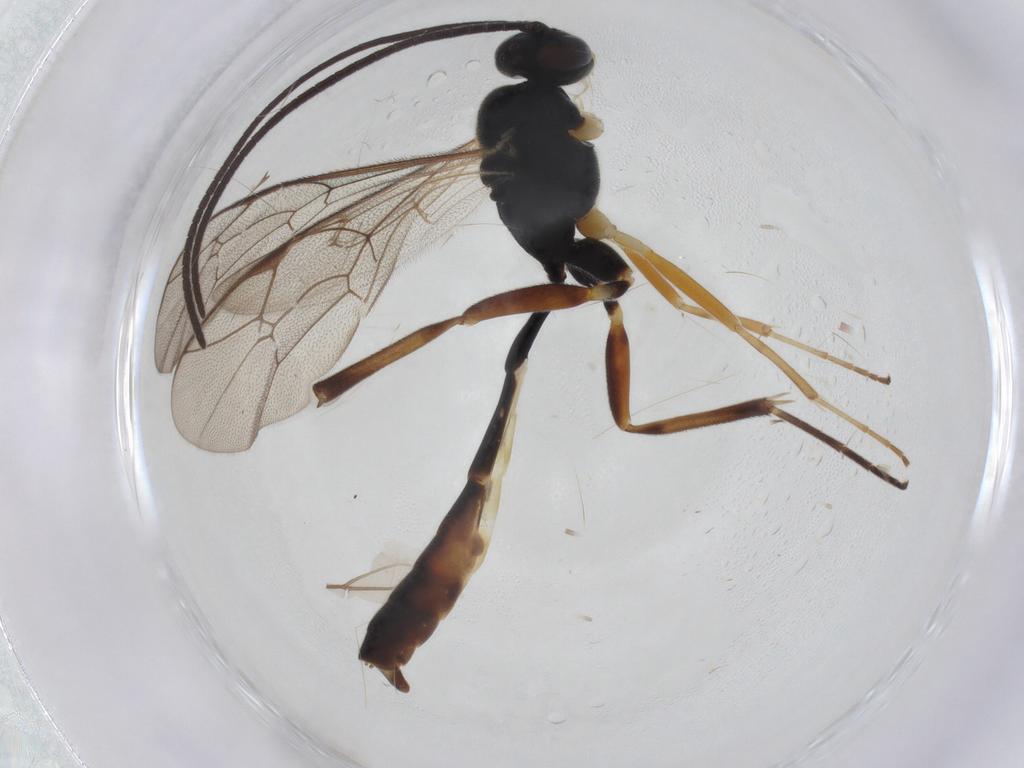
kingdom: Animalia
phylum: Arthropoda
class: Insecta
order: Hymenoptera
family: Ichneumonidae
